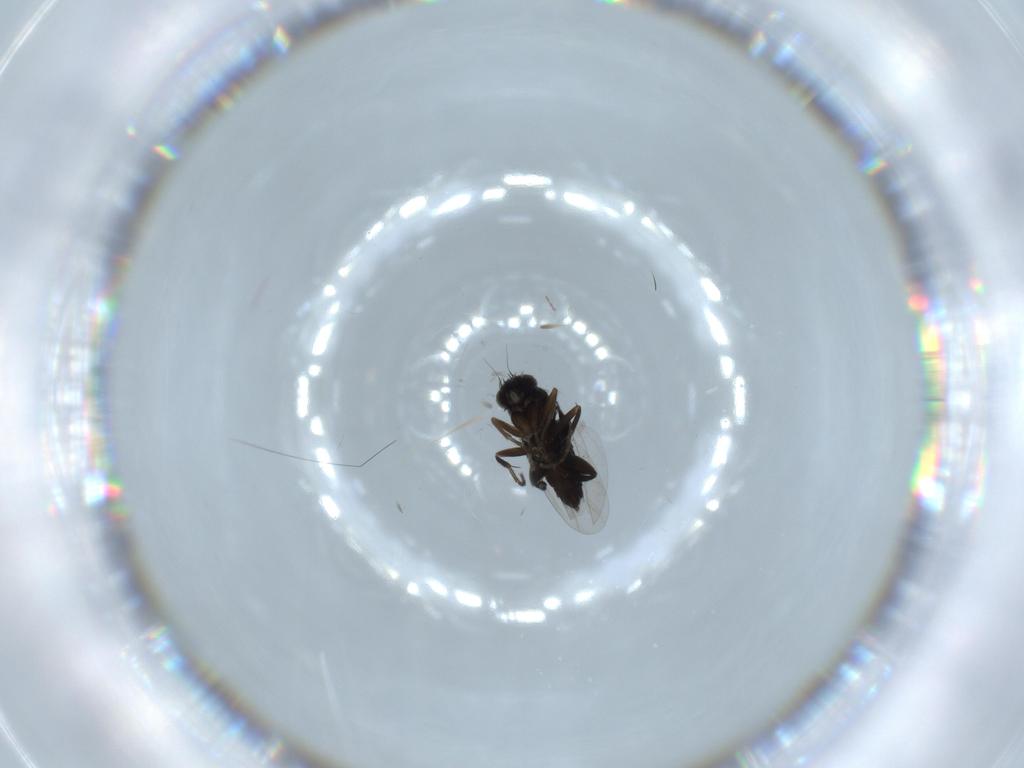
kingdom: Animalia
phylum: Arthropoda
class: Insecta
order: Diptera
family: Phoridae
